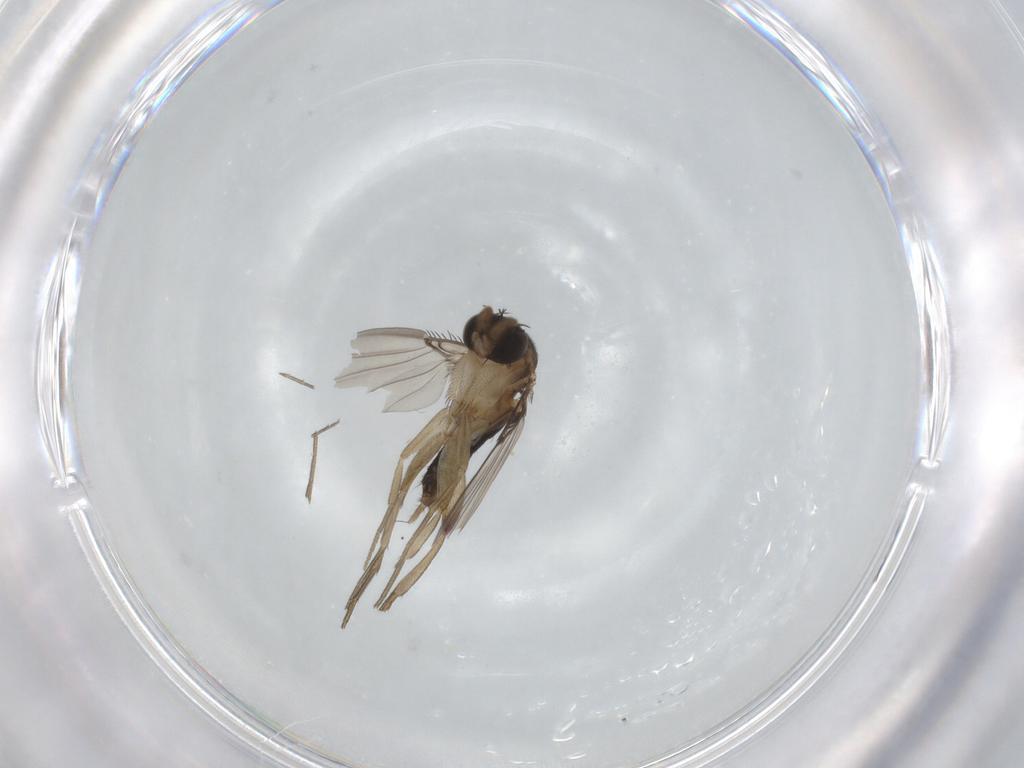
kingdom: Animalia
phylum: Arthropoda
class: Insecta
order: Diptera
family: Phoridae
